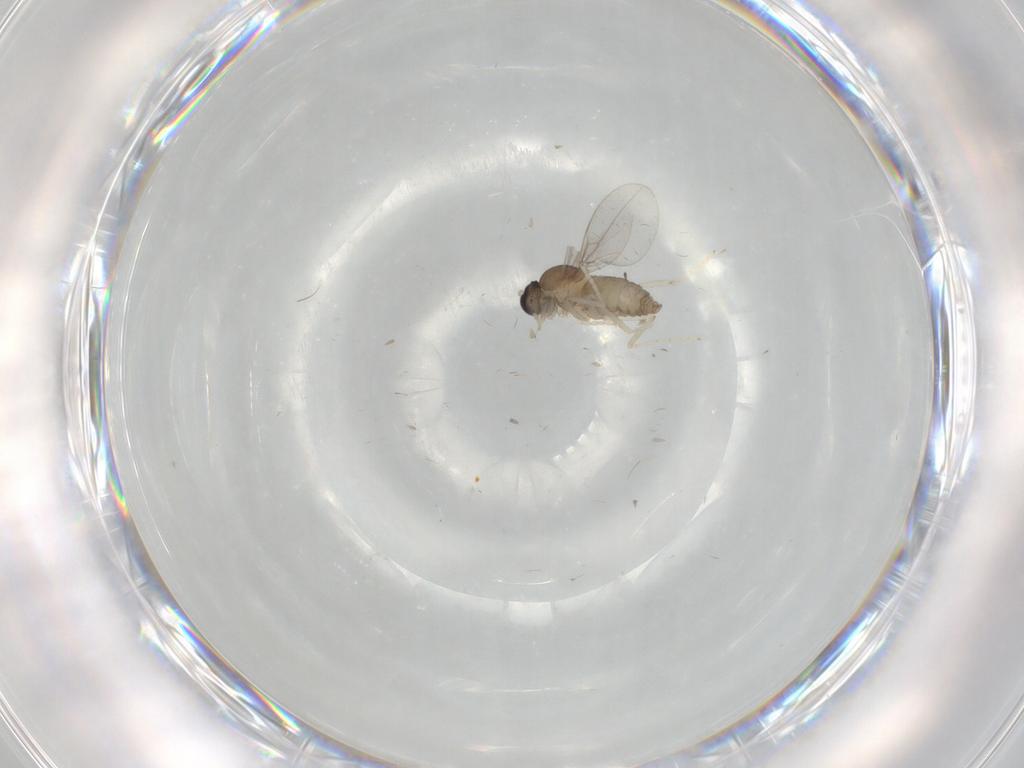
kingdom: Animalia
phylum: Arthropoda
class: Insecta
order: Diptera
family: Cecidomyiidae
